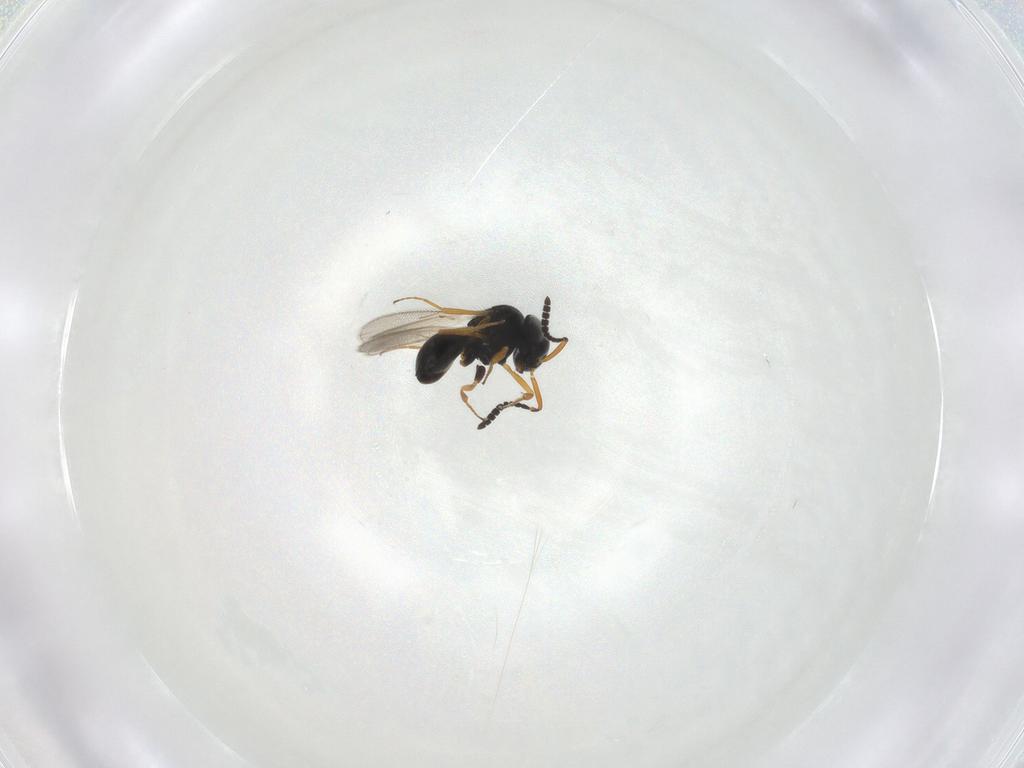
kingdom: Animalia
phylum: Arthropoda
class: Insecta
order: Hymenoptera
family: Scelionidae
